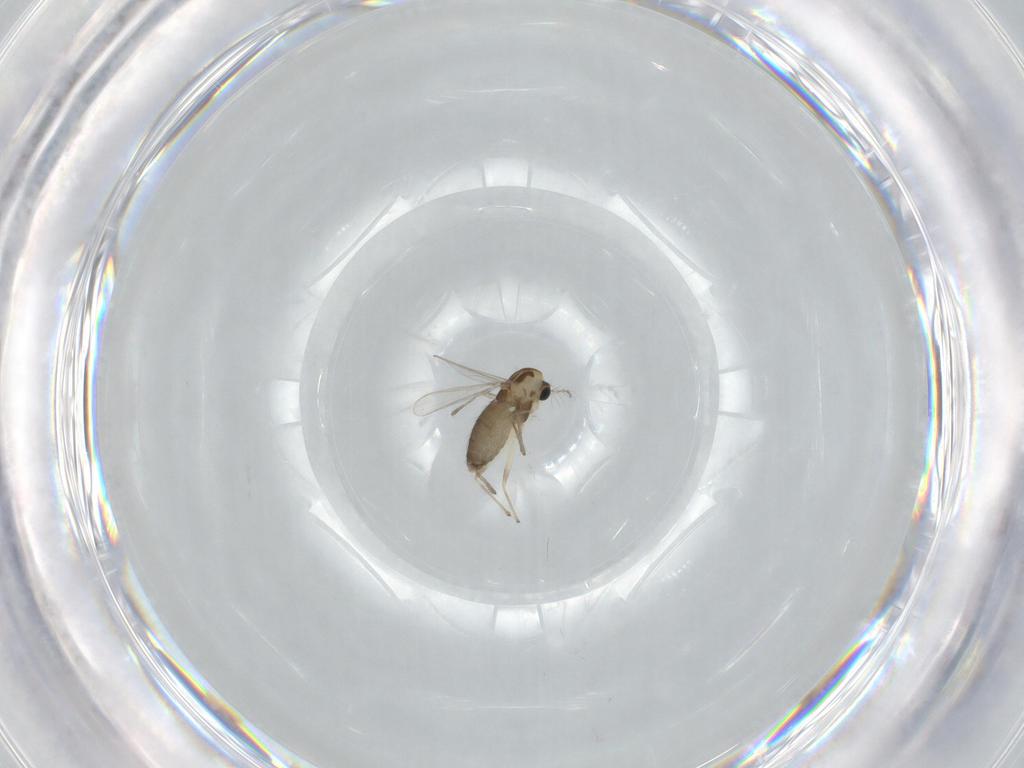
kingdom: Animalia
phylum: Arthropoda
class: Insecta
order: Diptera
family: Chironomidae
